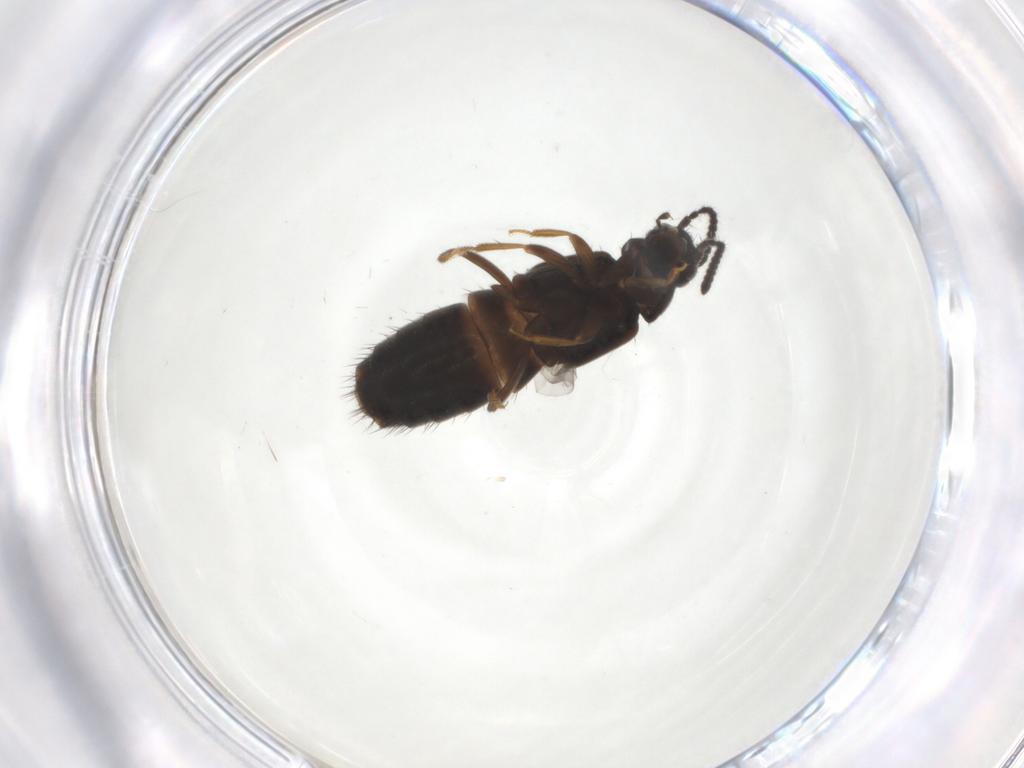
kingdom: Animalia
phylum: Arthropoda
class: Insecta
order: Coleoptera
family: Staphylinidae
